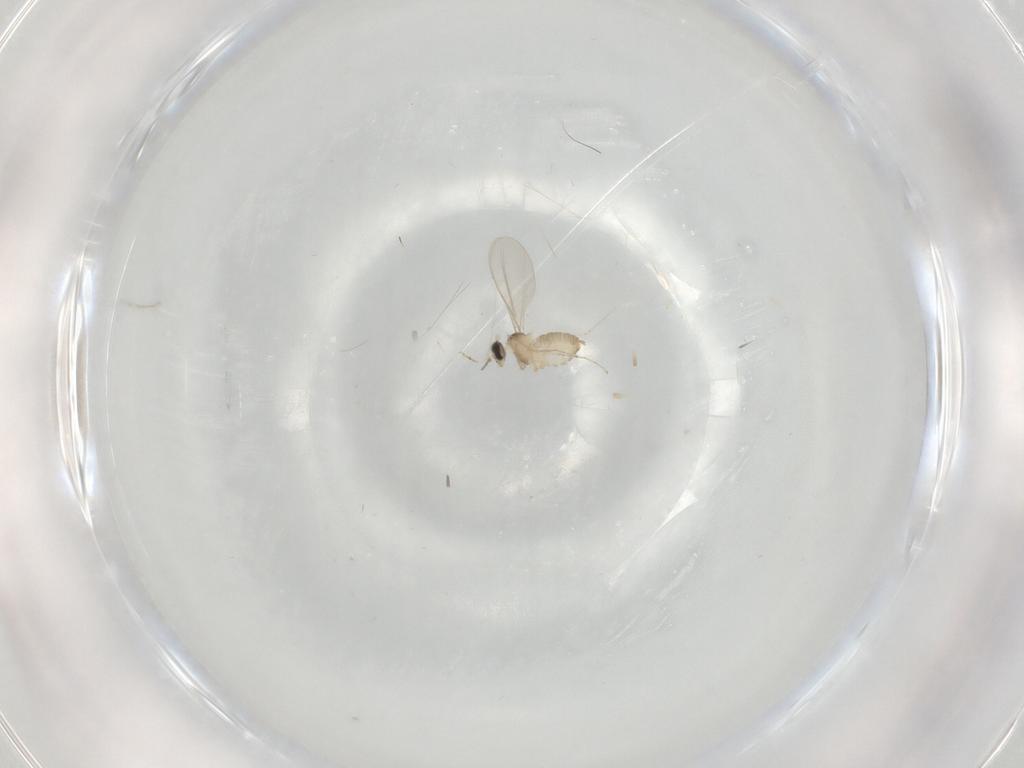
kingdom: Animalia
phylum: Arthropoda
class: Insecta
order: Diptera
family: Cecidomyiidae
